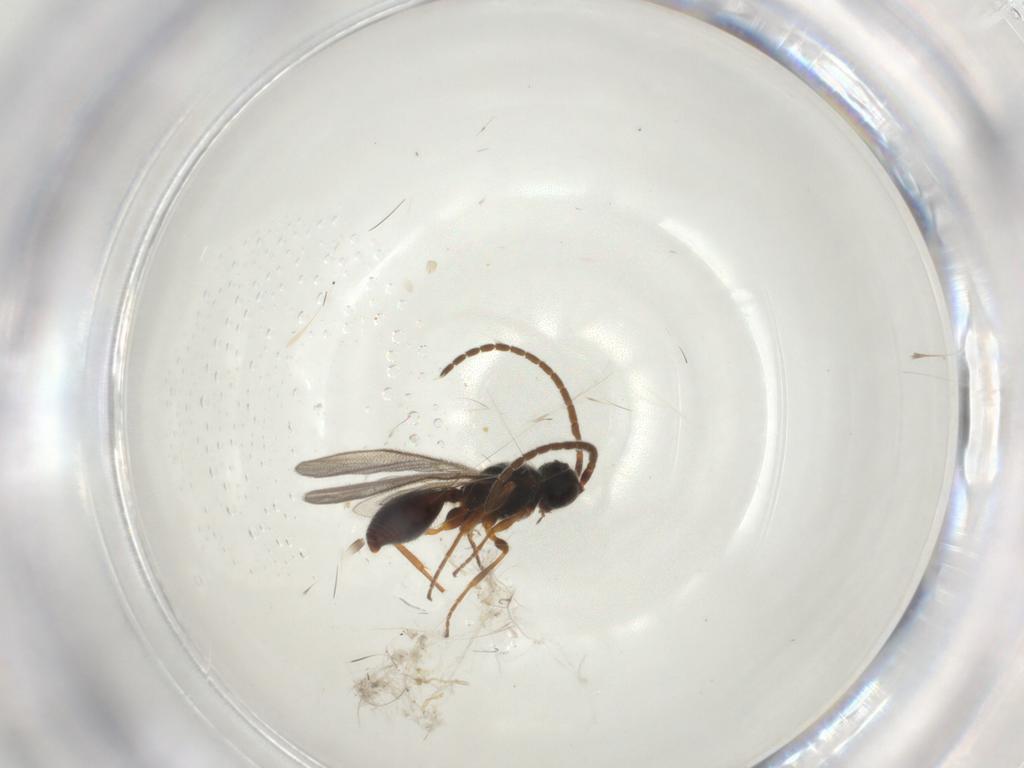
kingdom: Animalia
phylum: Arthropoda
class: Insecta
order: Hymenoptera
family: Diapriidae
